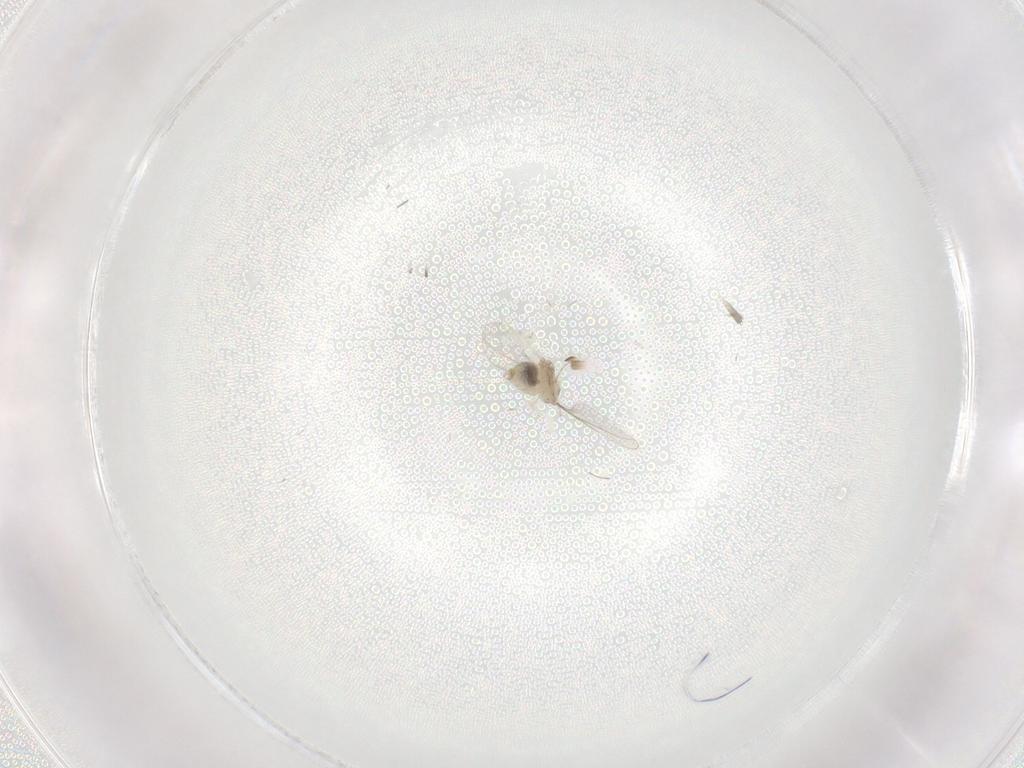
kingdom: Animalia
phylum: Arthropoda
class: Insecta
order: Diptera
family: Cecidomyiidae
